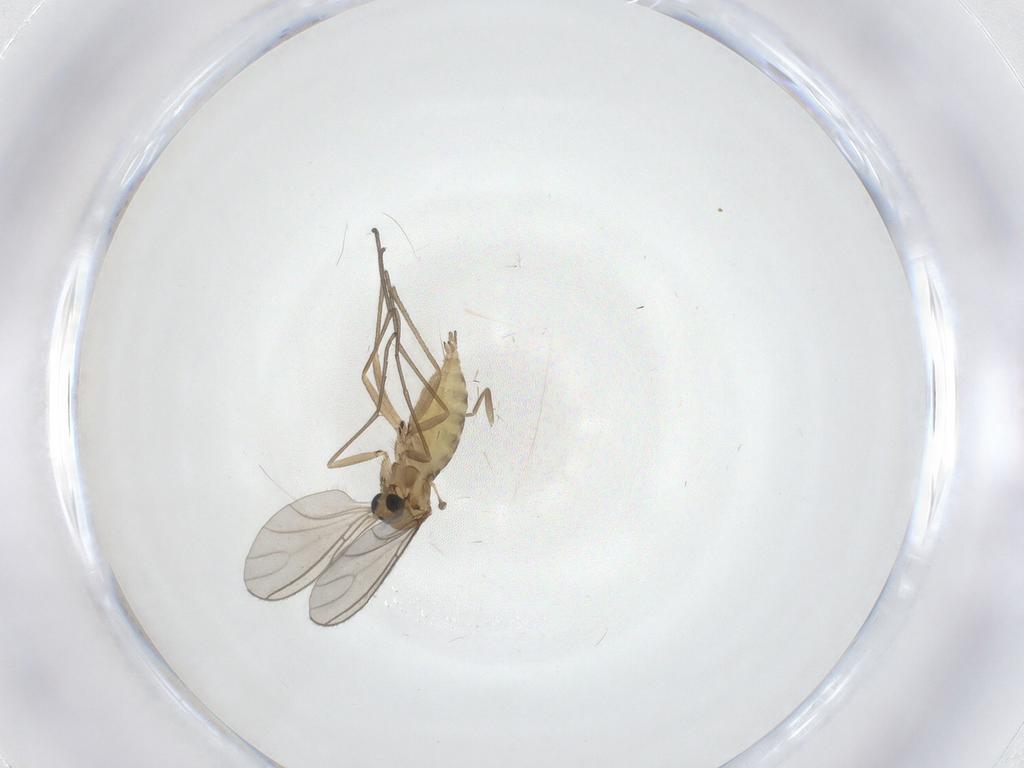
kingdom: Animalia
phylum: Arthropoda
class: Insecta
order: Diptera
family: Sciaridae
